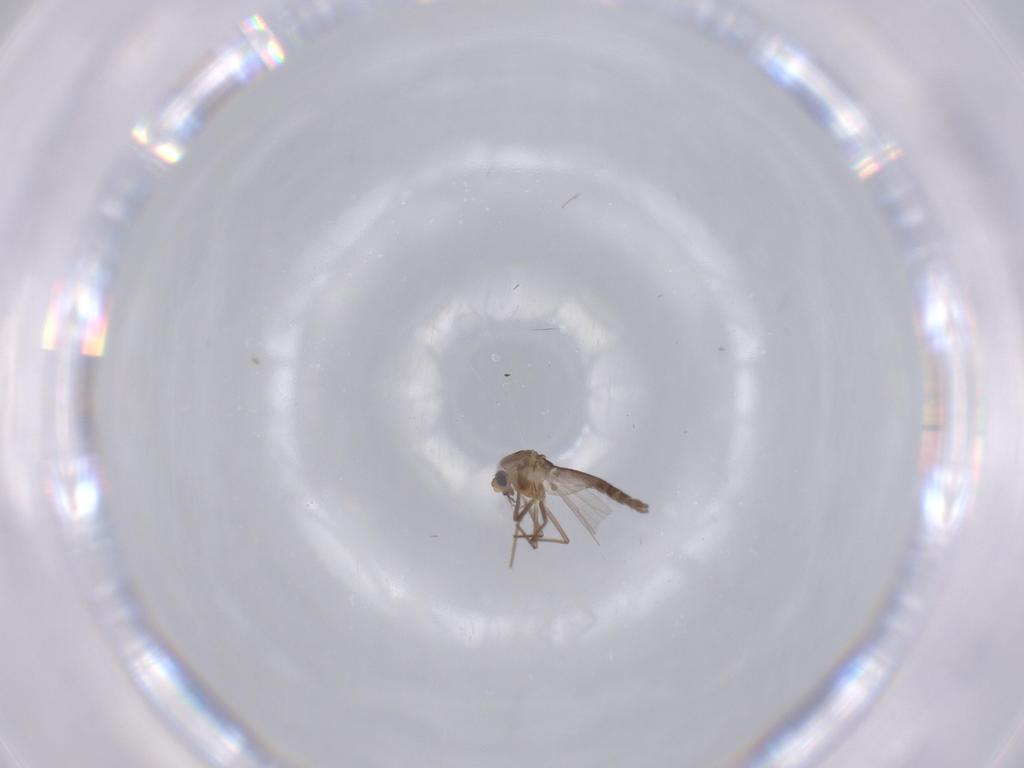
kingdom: Animalia
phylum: Arthropoda
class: Insecta
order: Diptera
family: Chironomidae
